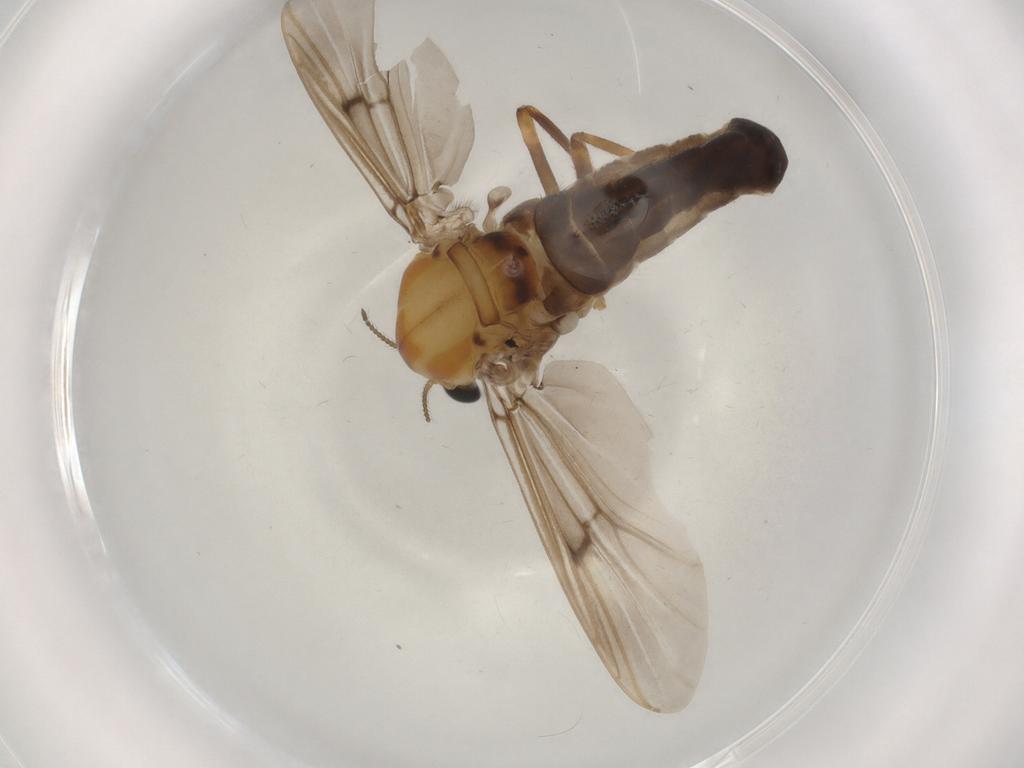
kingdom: Animalia
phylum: Arthropoda
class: Insecta
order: Diptera
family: Chironomidae
